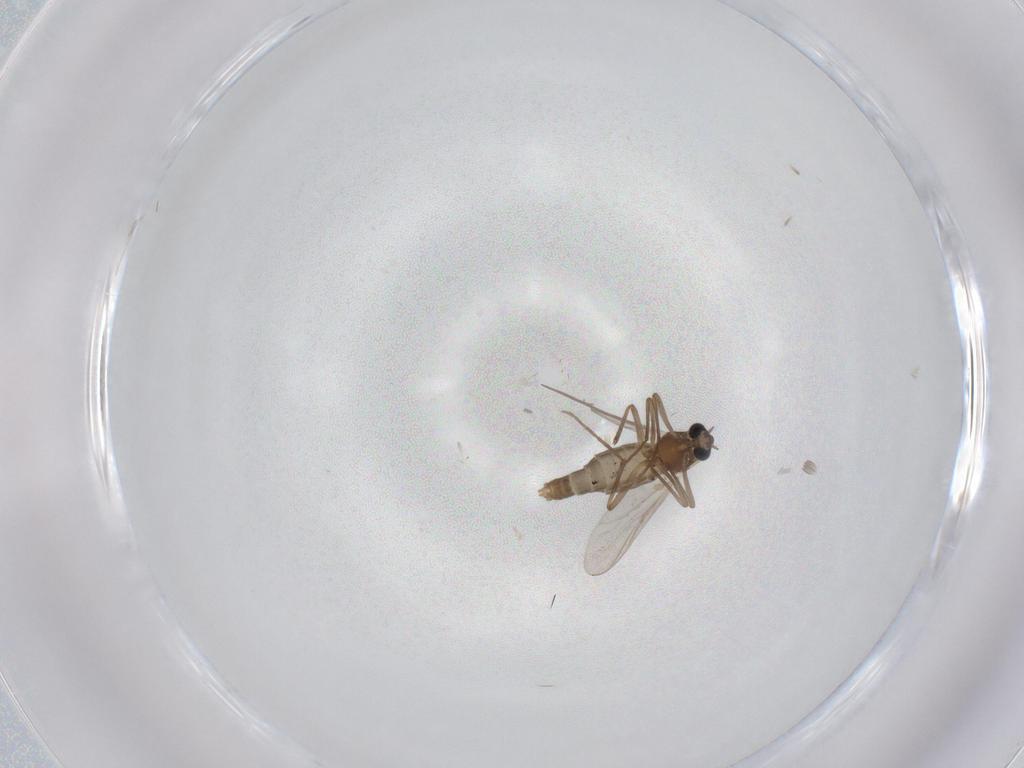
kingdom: Animalia
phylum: Arthropoda
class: Insecta
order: Diptera
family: Chironomidae
